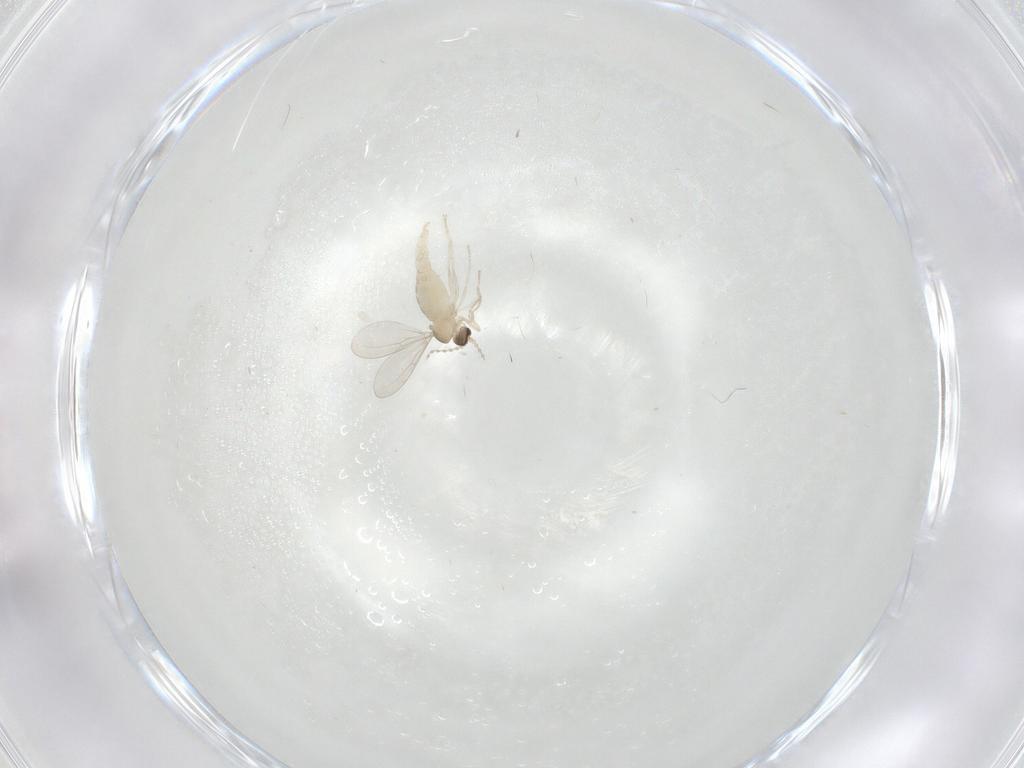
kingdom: Animalia
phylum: Arthropoda
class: Insecta
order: Diptera
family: Cecidomyiidae
